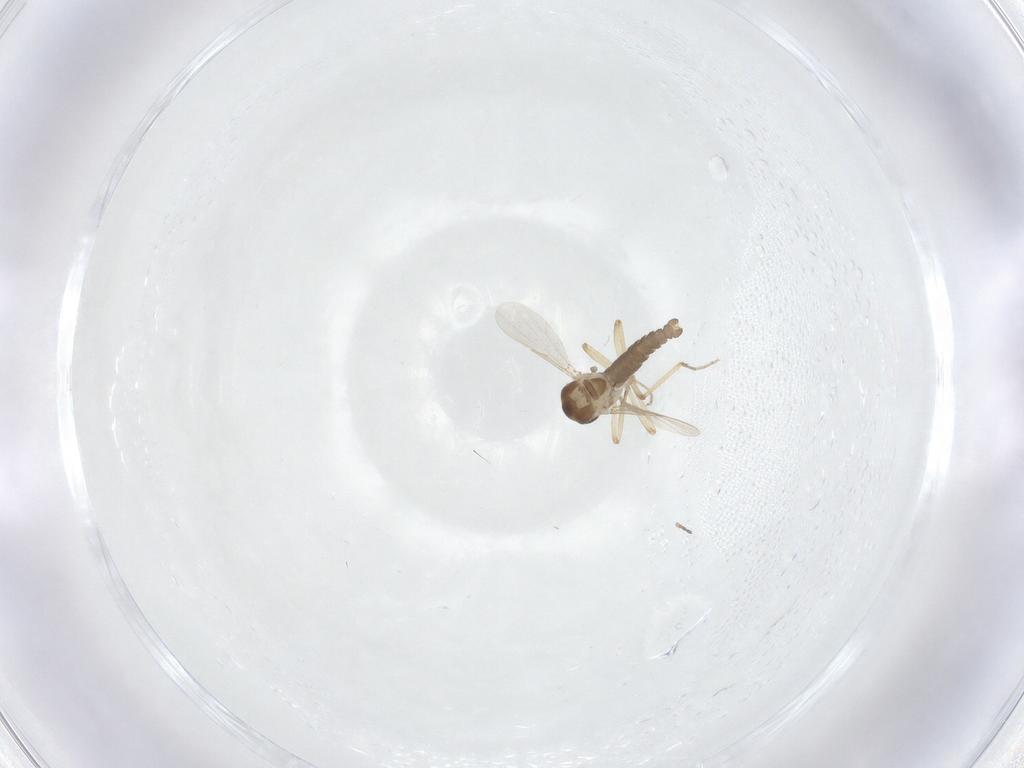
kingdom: Animalia
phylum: Arthropoda
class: Insecta
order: Diptera
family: Ceratopogonidae
